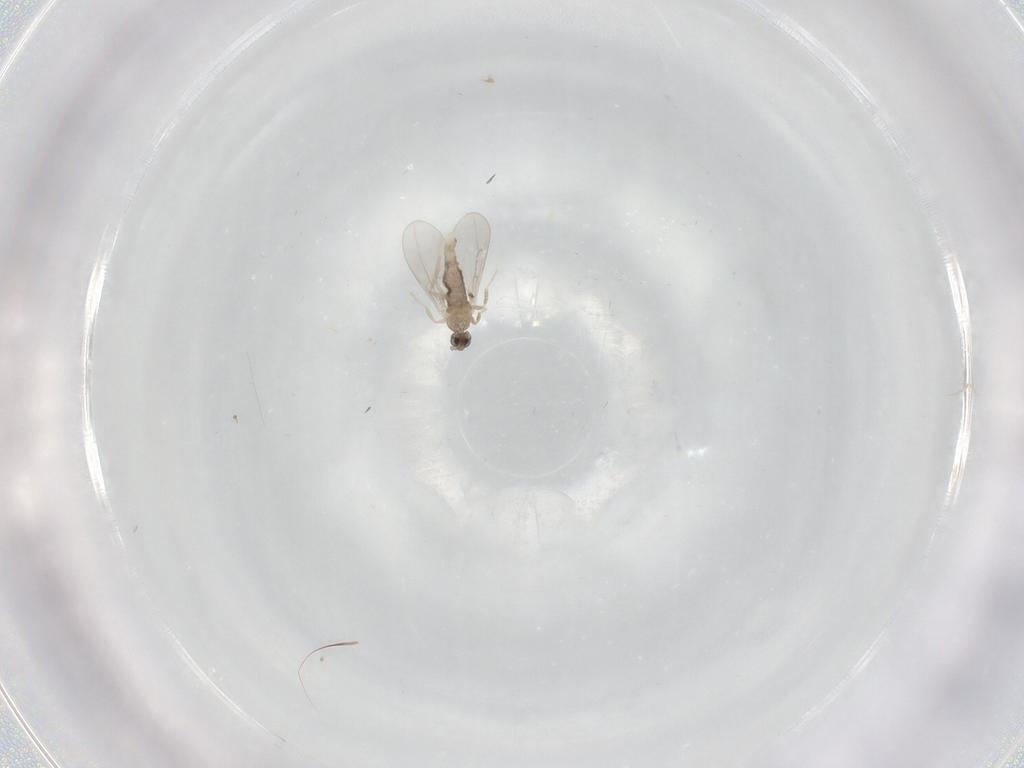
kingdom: Animalia
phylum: Arthropoda
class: Insecta
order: Diptera
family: Cecidomyiidae
